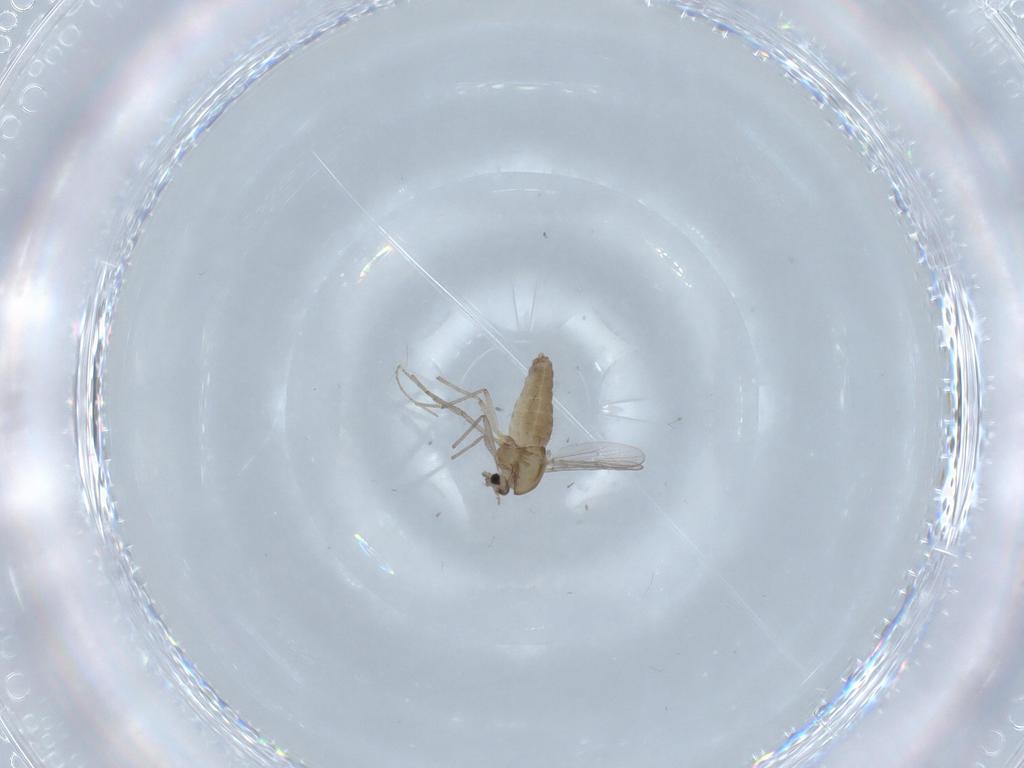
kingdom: Animalia
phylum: Arthropoda
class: Insecta
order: Diptera
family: Chironomidae
